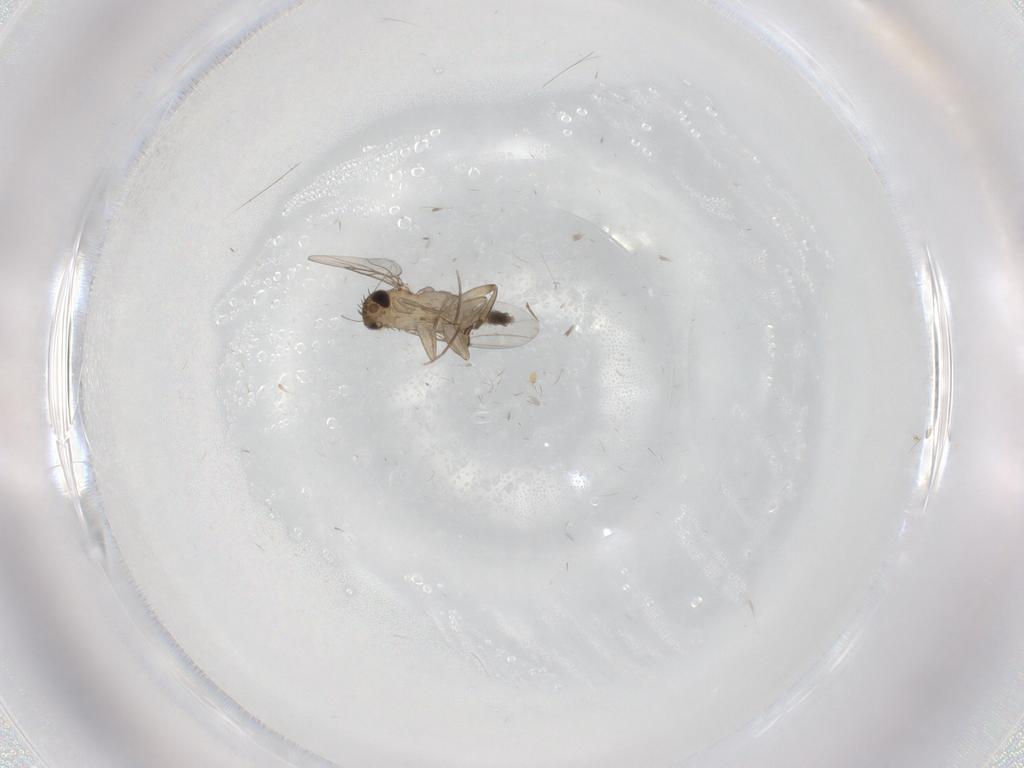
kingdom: Animalia
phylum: Arthropoda
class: Insecta
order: Diptera
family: Phoridae
